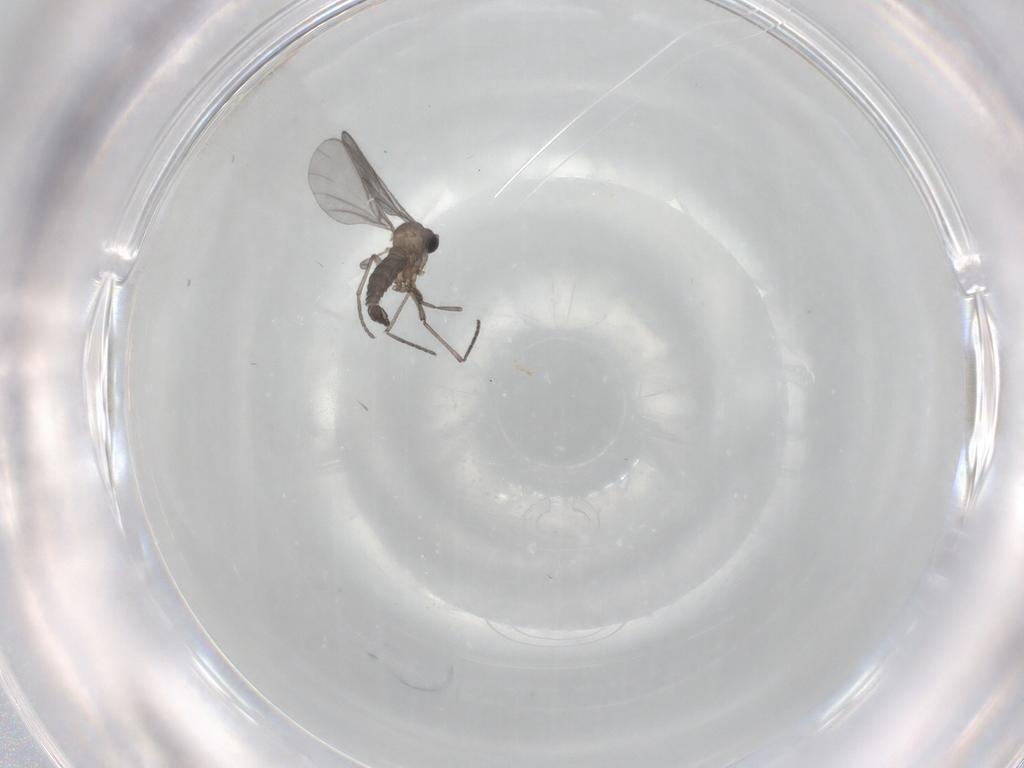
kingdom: Animalia
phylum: Arthropoda
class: Insecta
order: Diptera
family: Sciaridae
